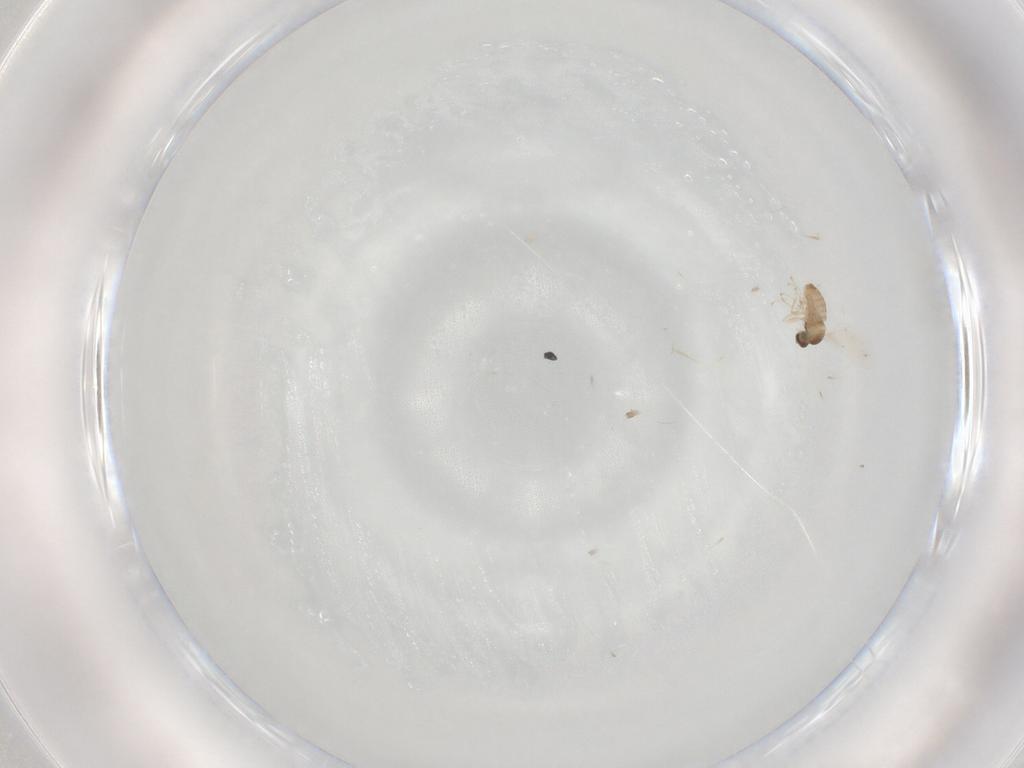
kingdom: Animalia
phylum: Arthropoda
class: Insecta
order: Diptera
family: Cecidomyiidae
